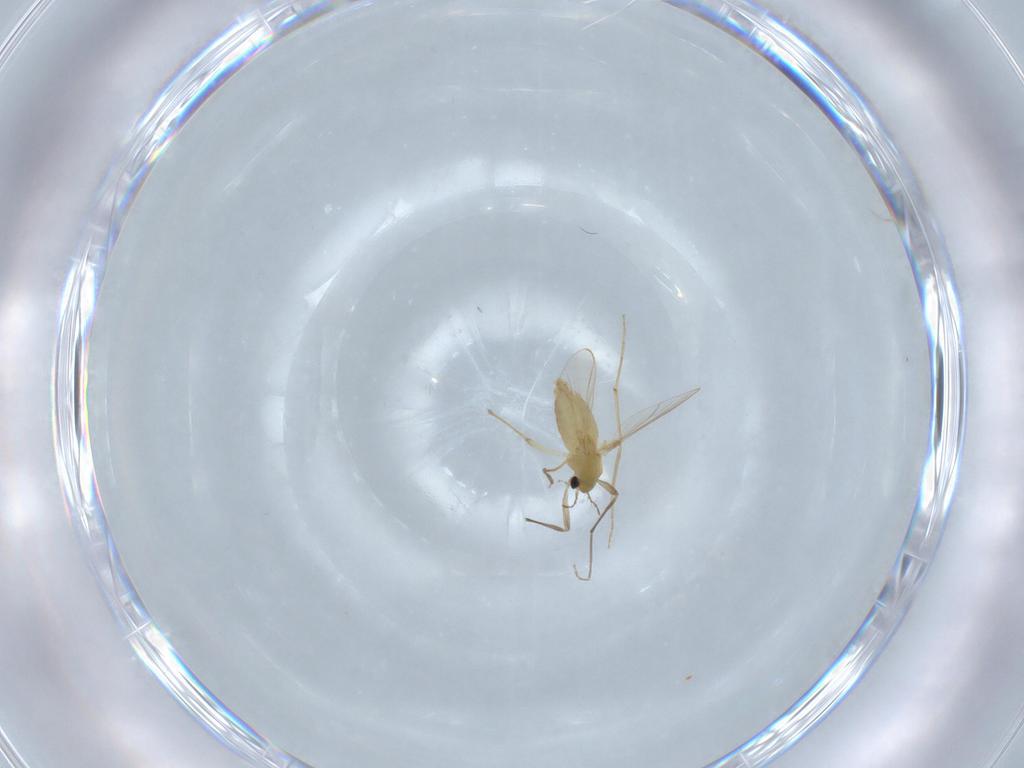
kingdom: Animalia
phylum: Arthropoda
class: Insecta
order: Diptera
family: Chironomidae
